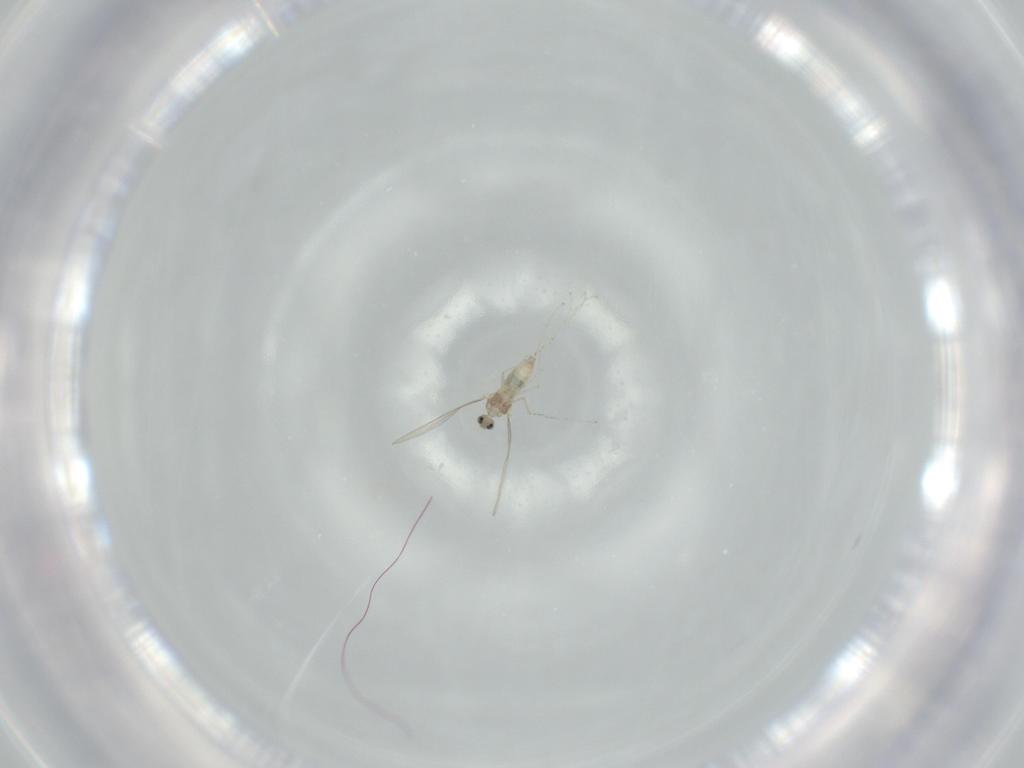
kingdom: Animalia
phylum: Arthropoda
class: Insecta
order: Diptera
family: Cecidomyiidae
